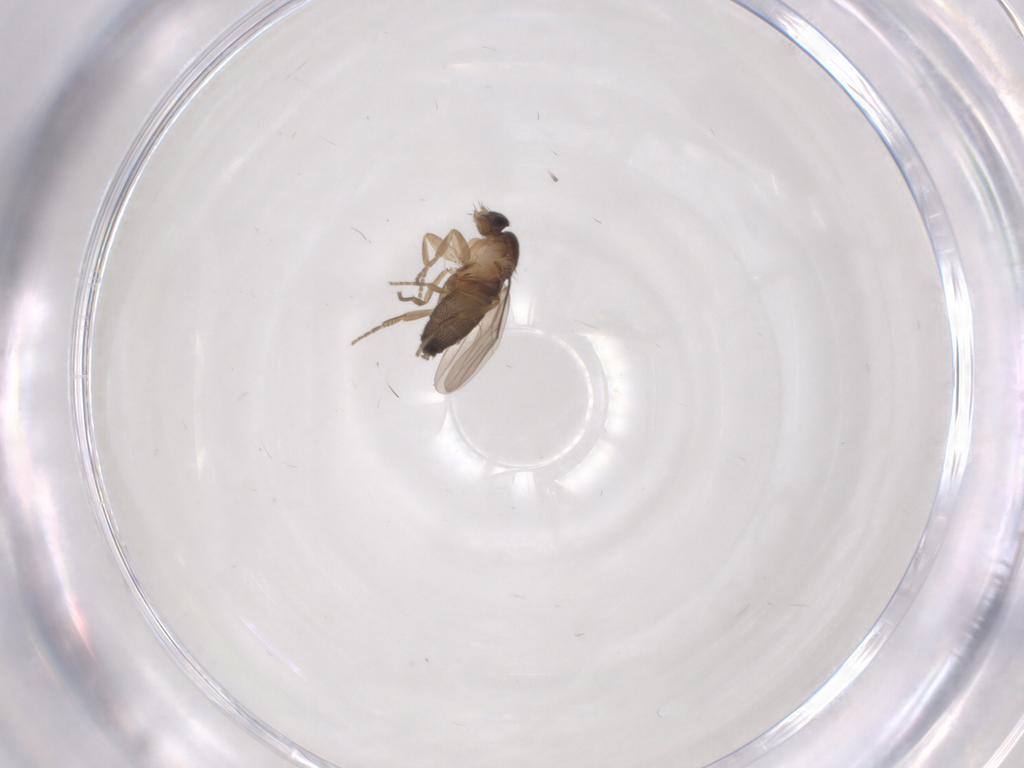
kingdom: Animalia
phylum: Arthropoda
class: Insecta
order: Diptera
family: Phoridae
